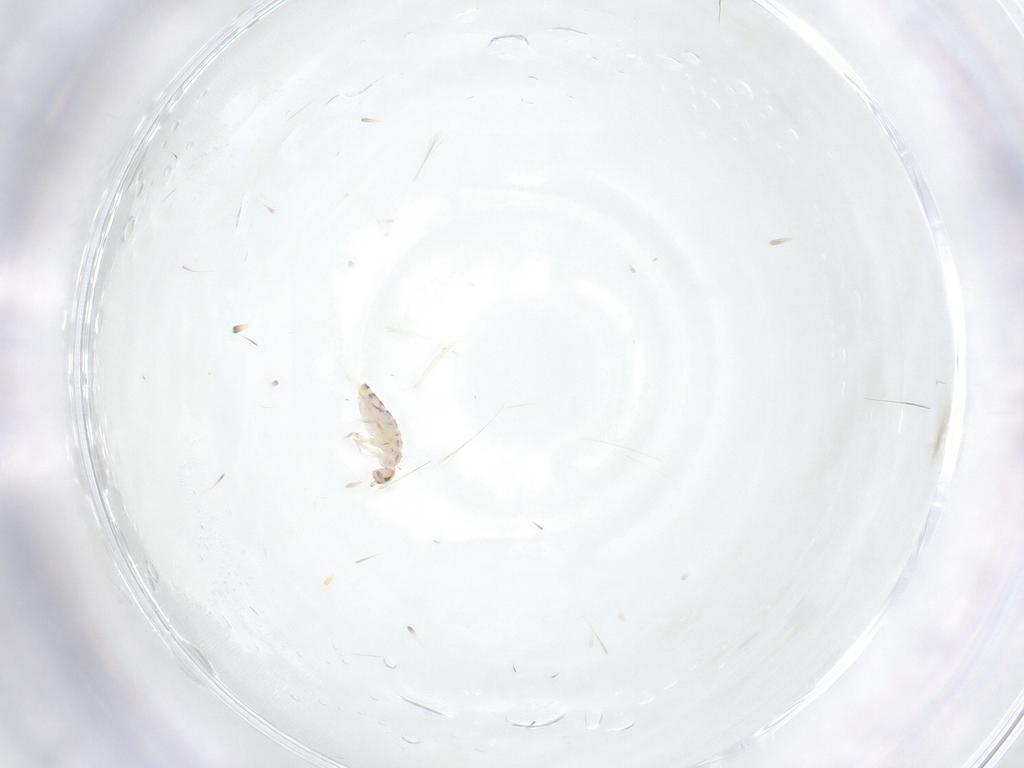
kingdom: Animalia
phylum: Arthropoda
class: Collembola
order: Entomobryomorpha
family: Entomobryidae
